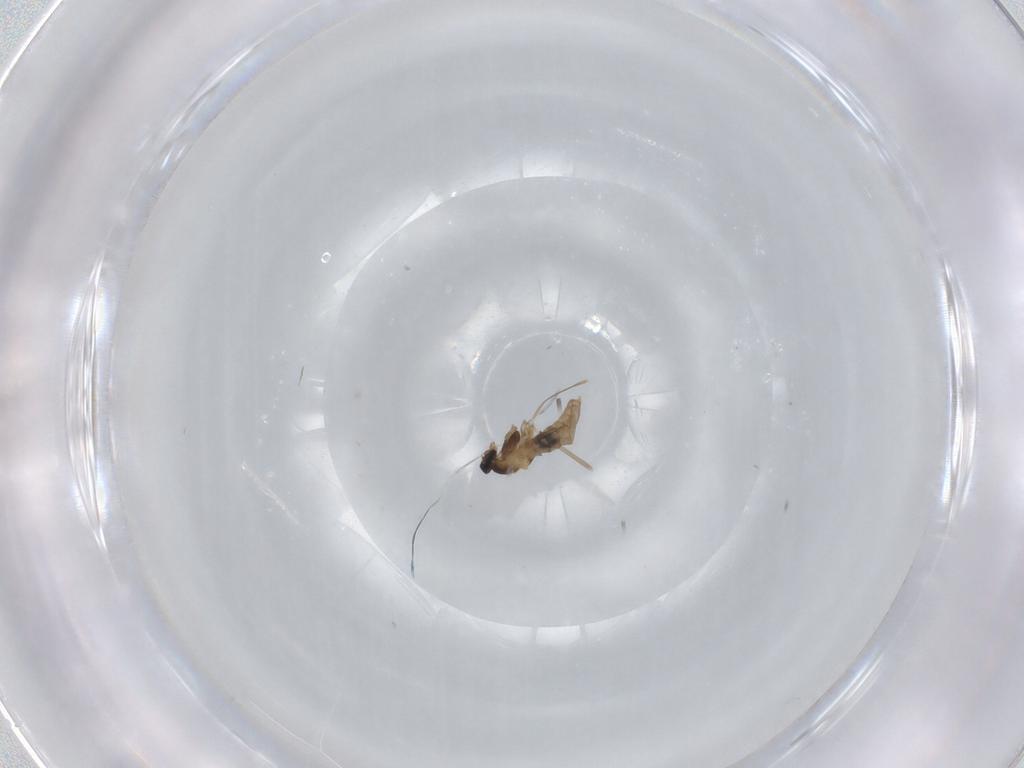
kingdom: Animalia
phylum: Arthropoda
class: Insecta
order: Diptera
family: Cecidomyiidae
